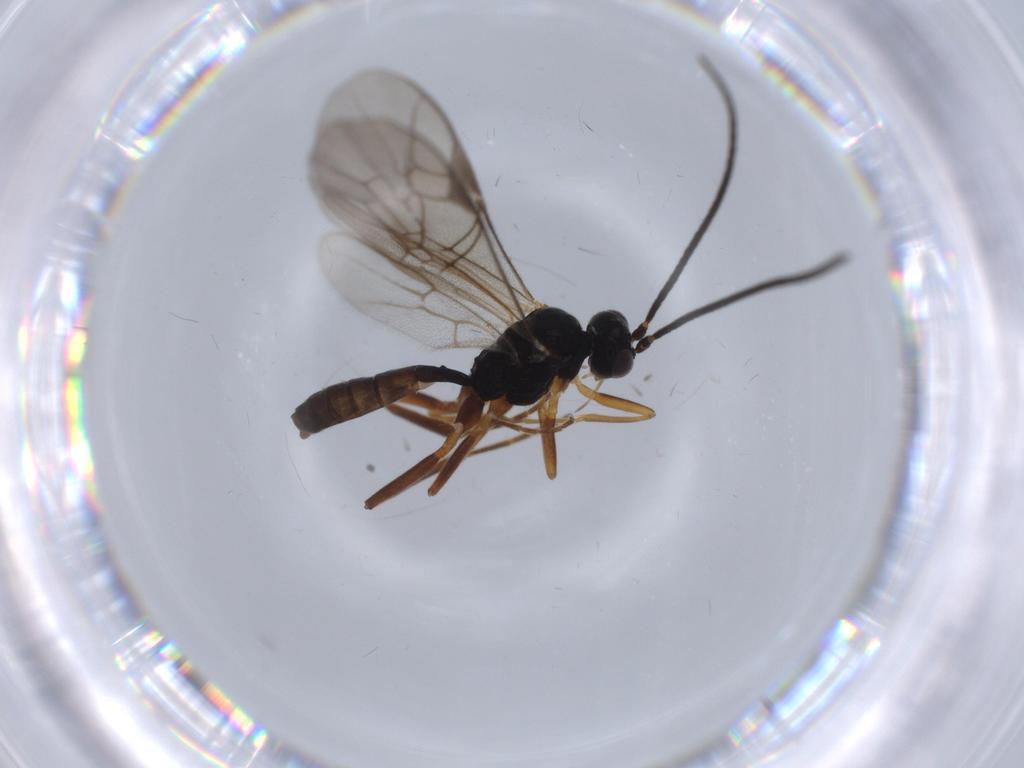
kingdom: Animalia
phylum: Arthropoda
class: Insecta
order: Hymenoptera
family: Ichneumonidae
